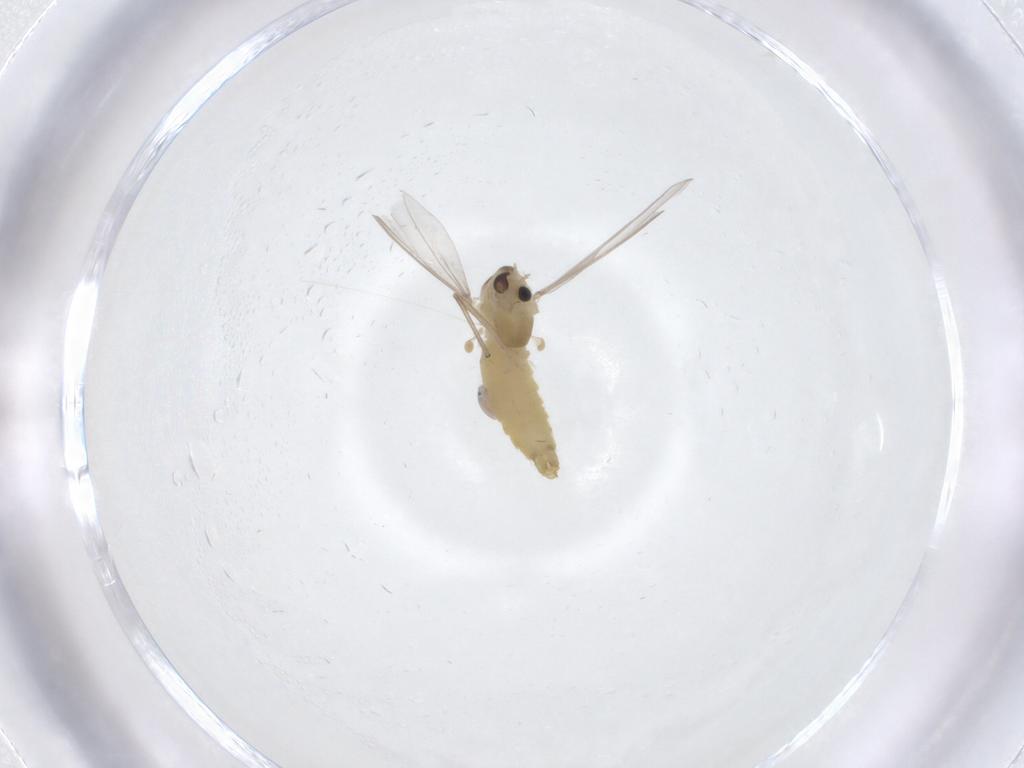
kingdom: Animalia
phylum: Arthropoda
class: Insecta
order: Diptera
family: Chironomidae
